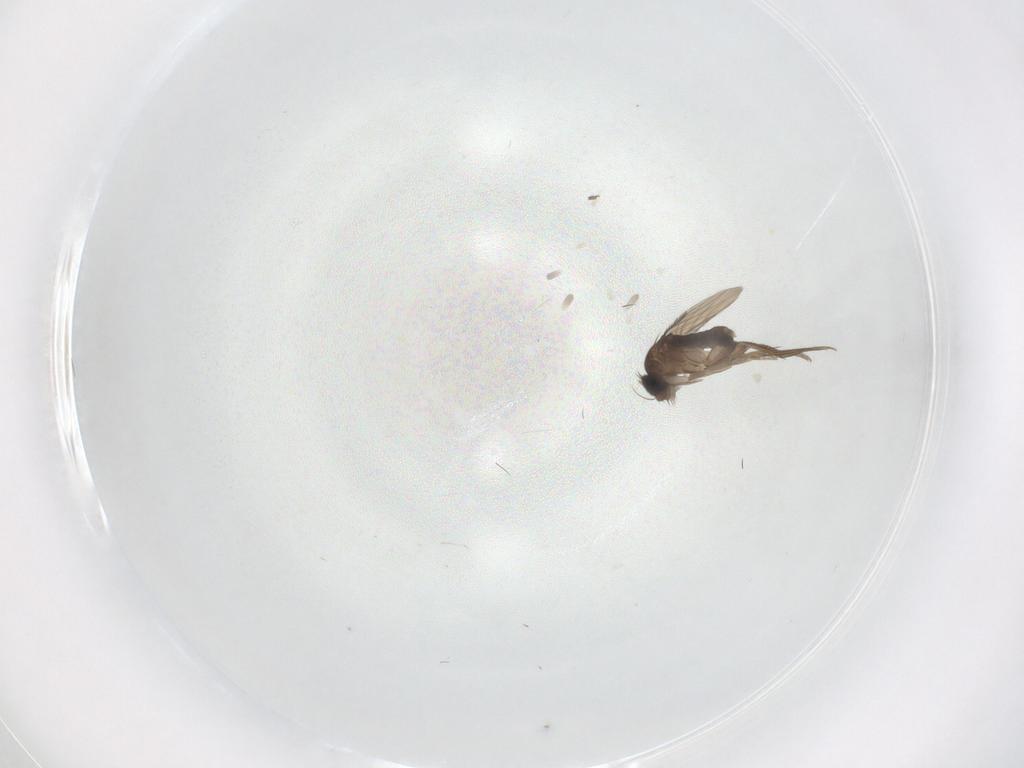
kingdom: Animalia
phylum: Arthropoda
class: Insecta
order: Diptera
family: Phoridae
